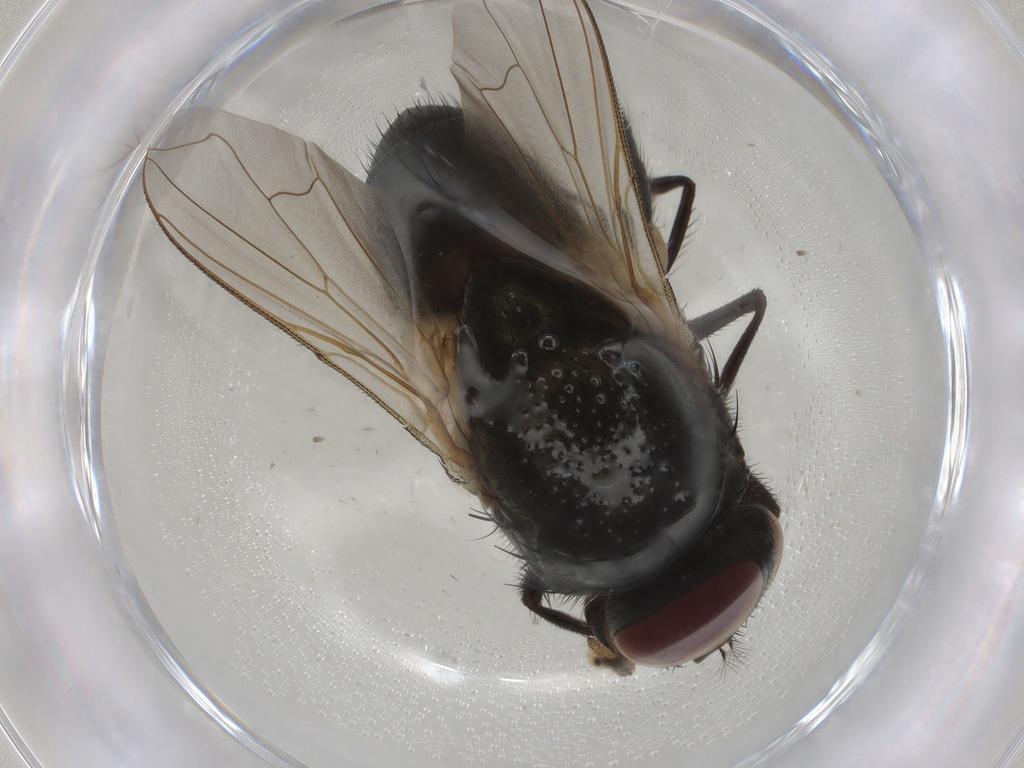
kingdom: Animalia
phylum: Arthropoda
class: Insecta
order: Diptera
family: Muscidae
